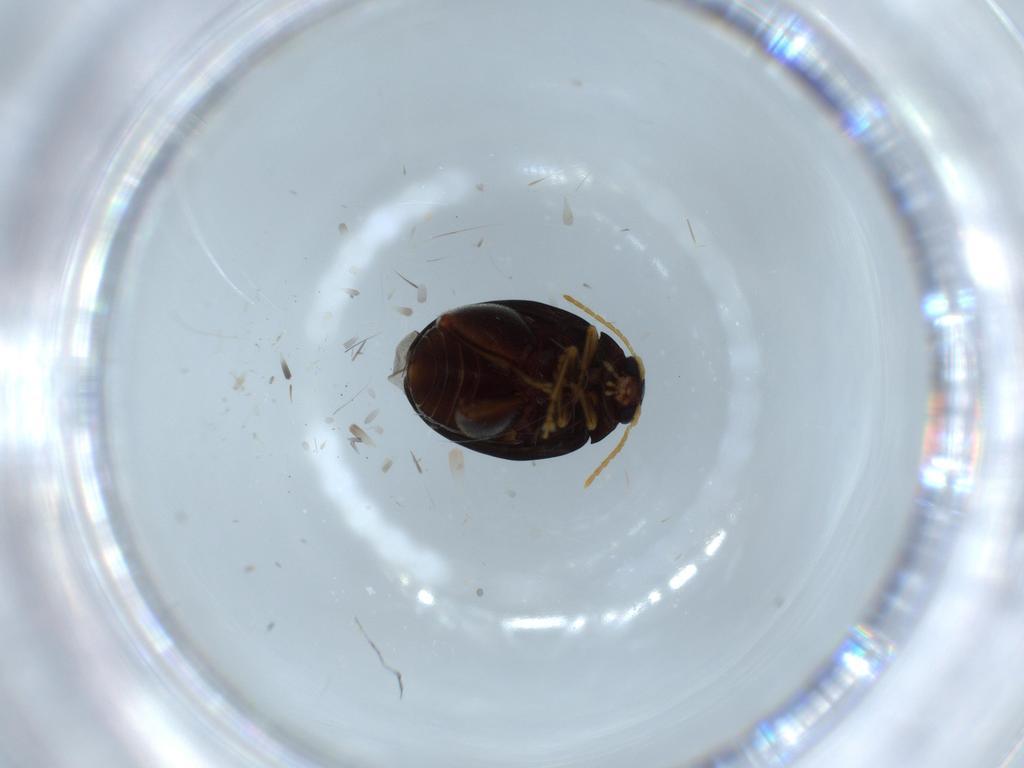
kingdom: Animalia
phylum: Arthropoda
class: Insecta
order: Coleoptera
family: Chrysomelidae
